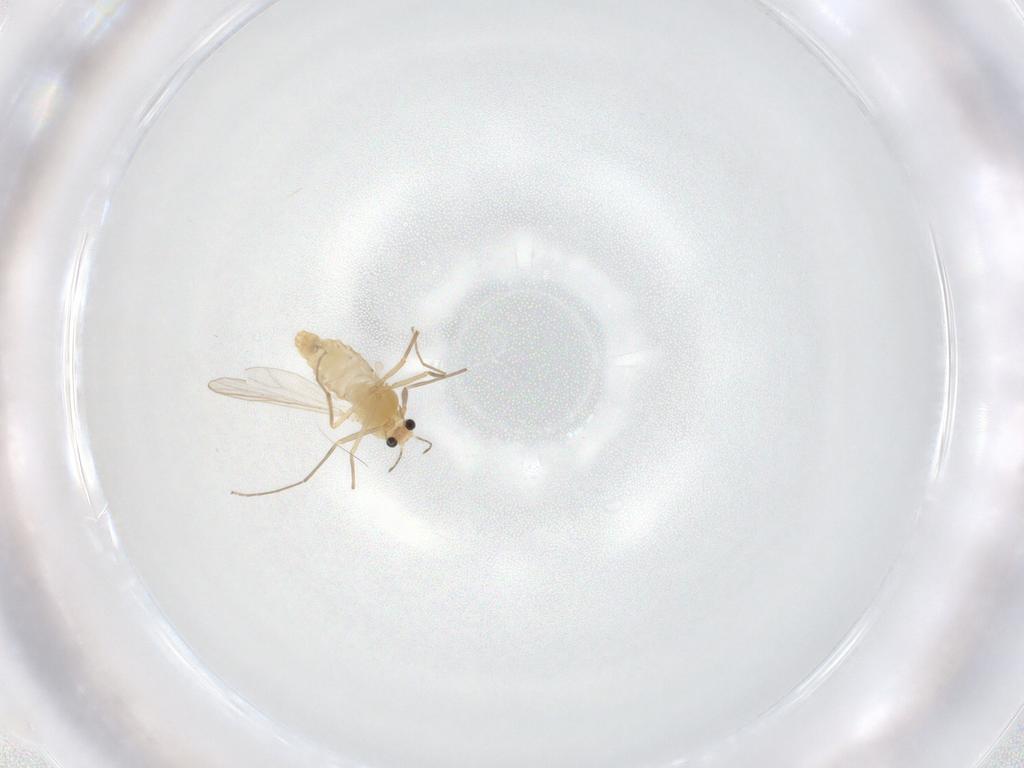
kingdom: Animalia
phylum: Arthropoda
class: Insecta
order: Diptera
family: Chironomidae
